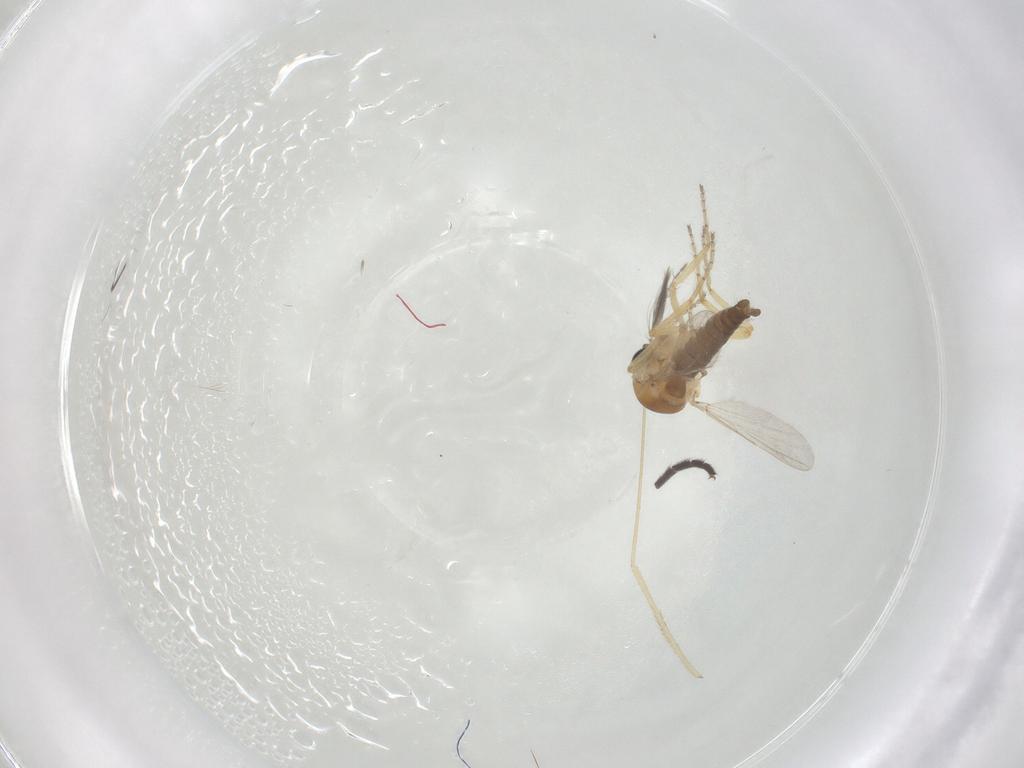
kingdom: Animalia
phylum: Arthropoda
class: Insecta
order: Diptera
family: Ceratopogonidae
